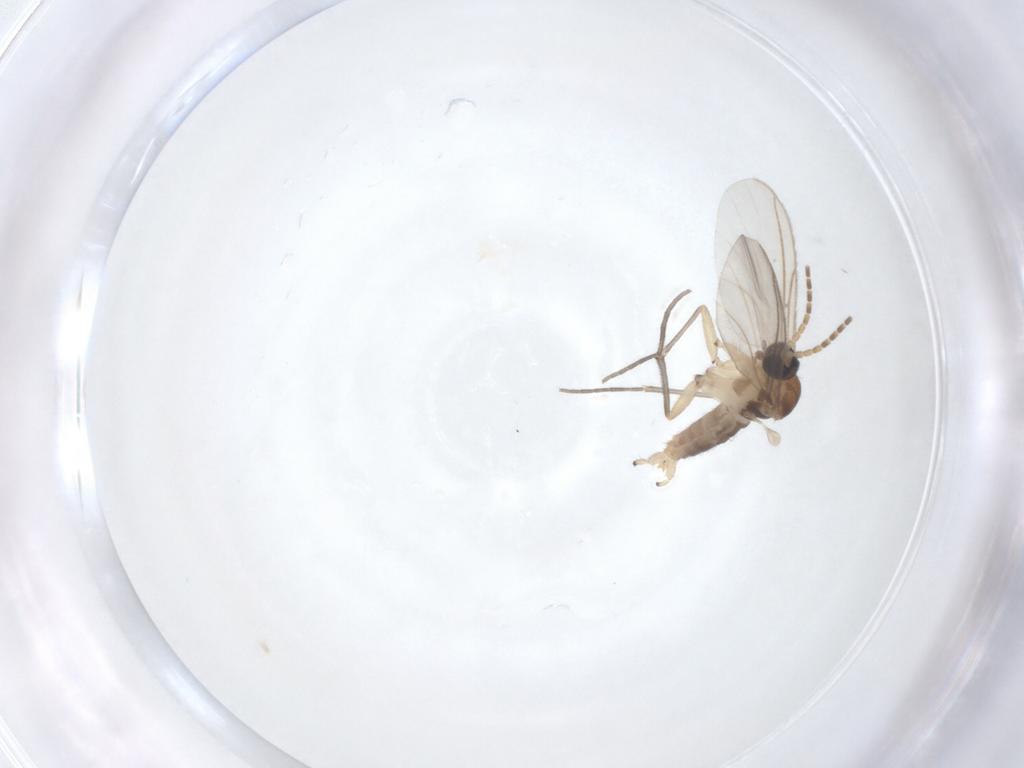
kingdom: Animalia
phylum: Arthropoda
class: Insecta
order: Diptera
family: Sciaridae
